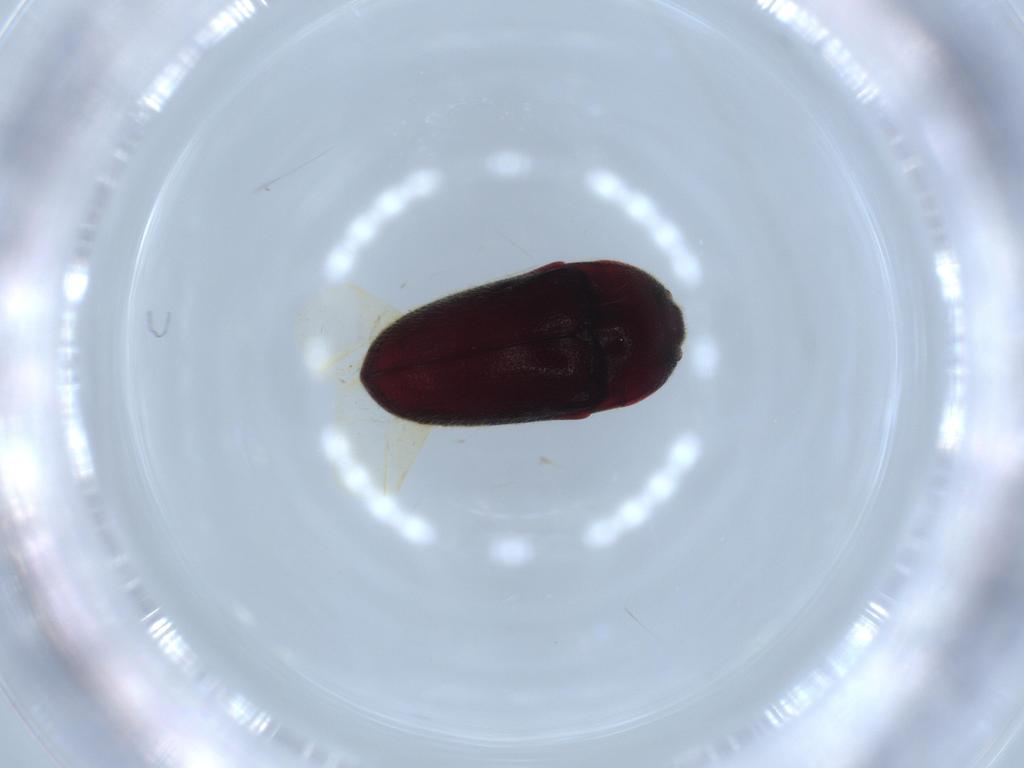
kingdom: Animalia
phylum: Arthropoda
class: Insecta
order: Coleoptera
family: Throscidae
